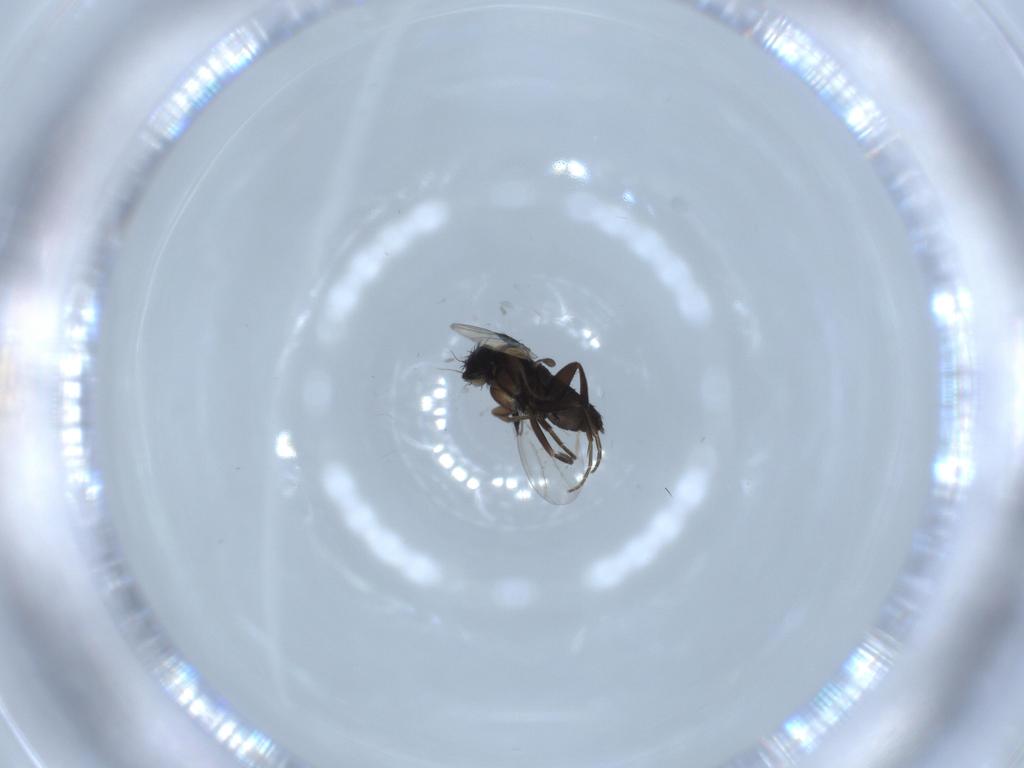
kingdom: Animalia
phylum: Arthropoda
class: Insecta
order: Diptera
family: Phoridae
